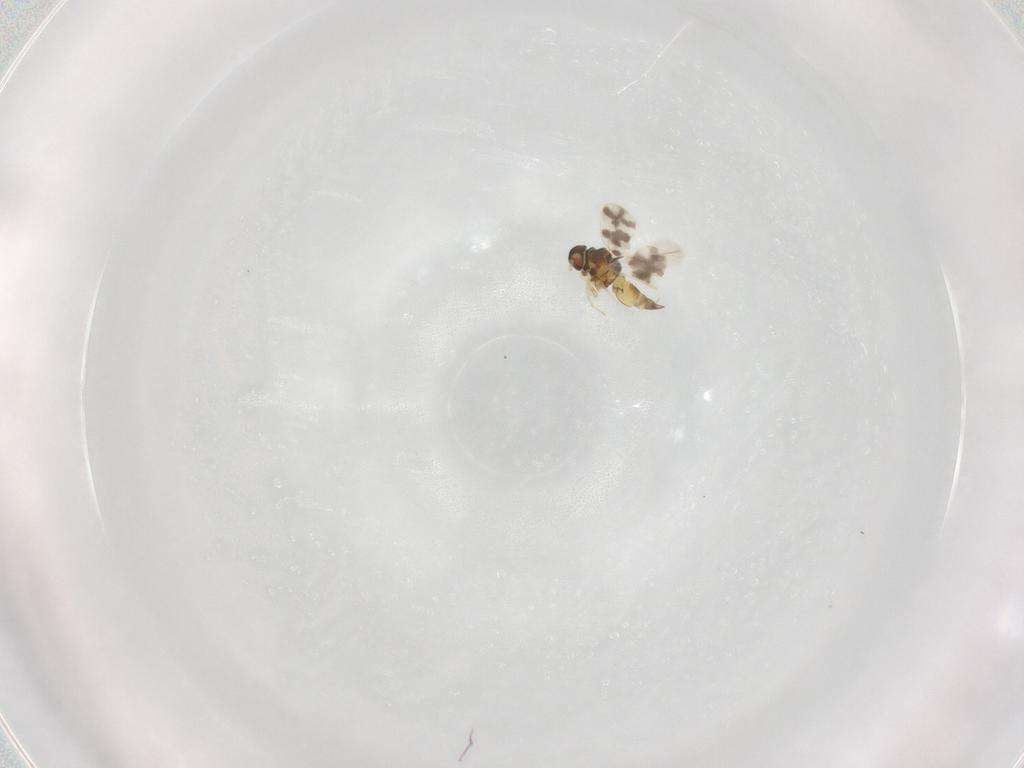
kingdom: Animalia
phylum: Arthropoda
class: Insecta
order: Hemiptera
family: Aleyrodidae
